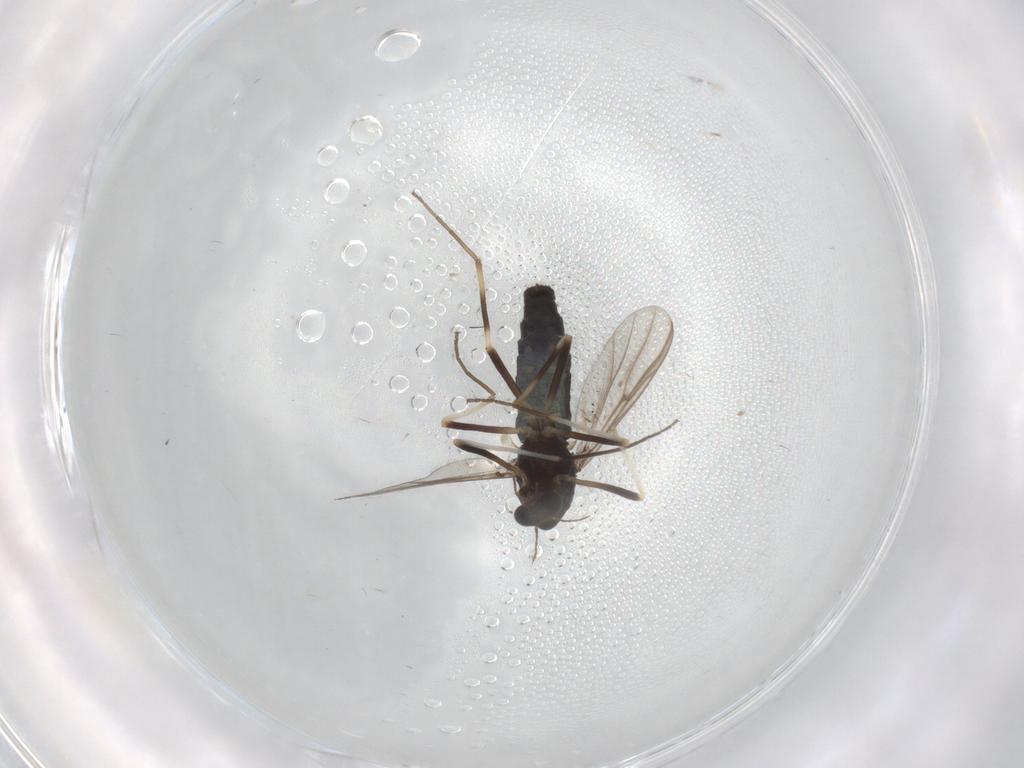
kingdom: Animalia
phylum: Arthropoda
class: Insecta
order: Diptera
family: Chironomidae
